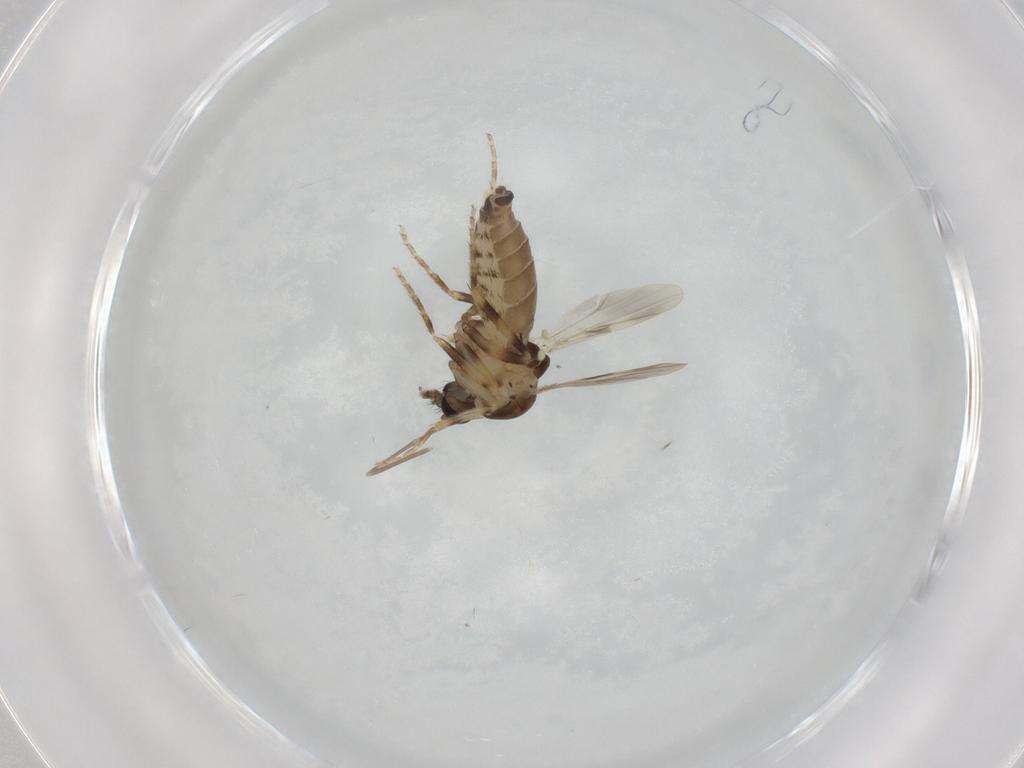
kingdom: Animalia
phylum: Arthropoda
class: Insecta
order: Diptera
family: Ceratopogonidae
